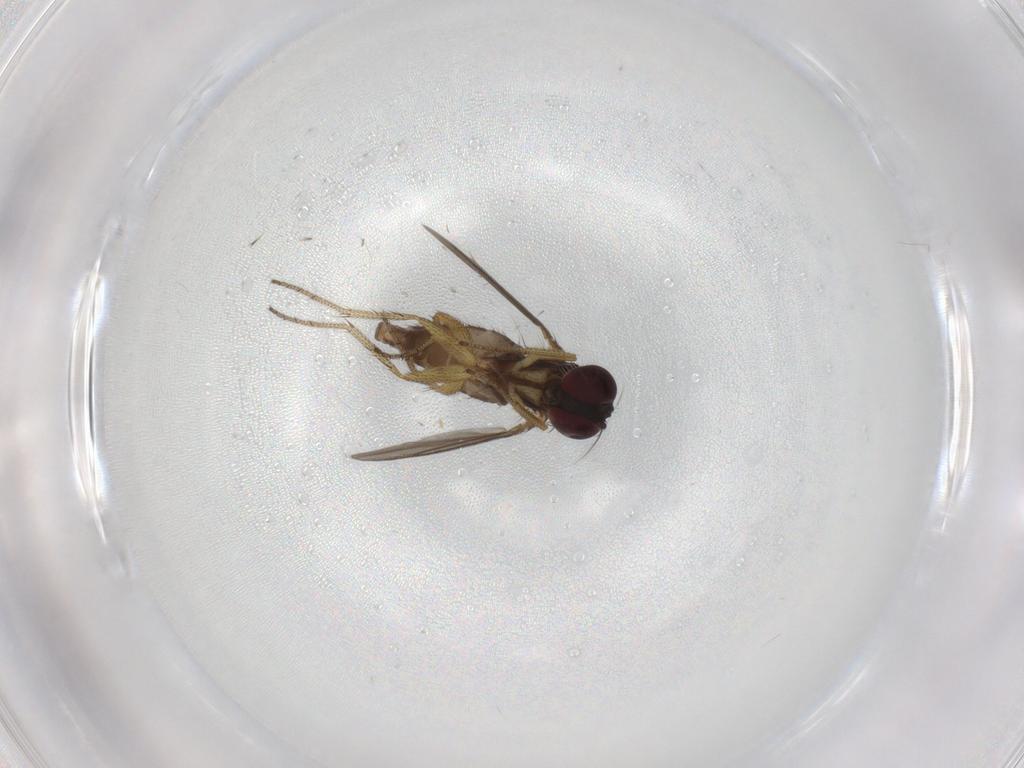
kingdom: Animalia
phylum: Arthropoda
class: Insecta
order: Diptera
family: Dolichopodidae
